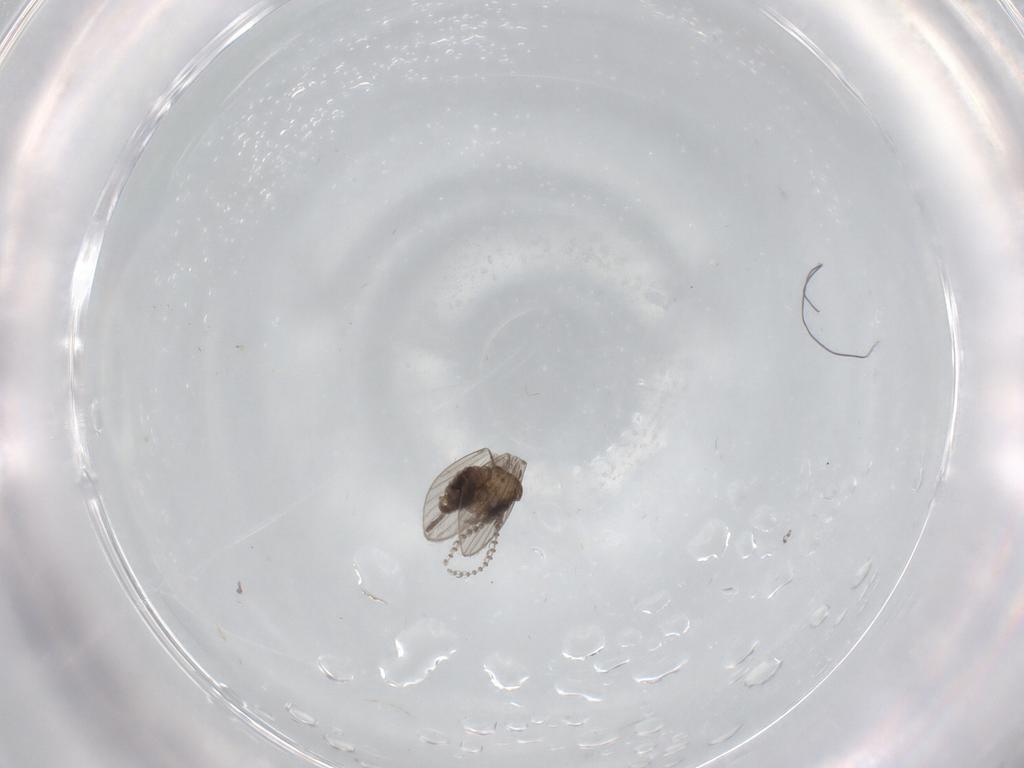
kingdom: Animalia
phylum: Arthropoda
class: Insecta
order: Diptera
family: Psychodidae
